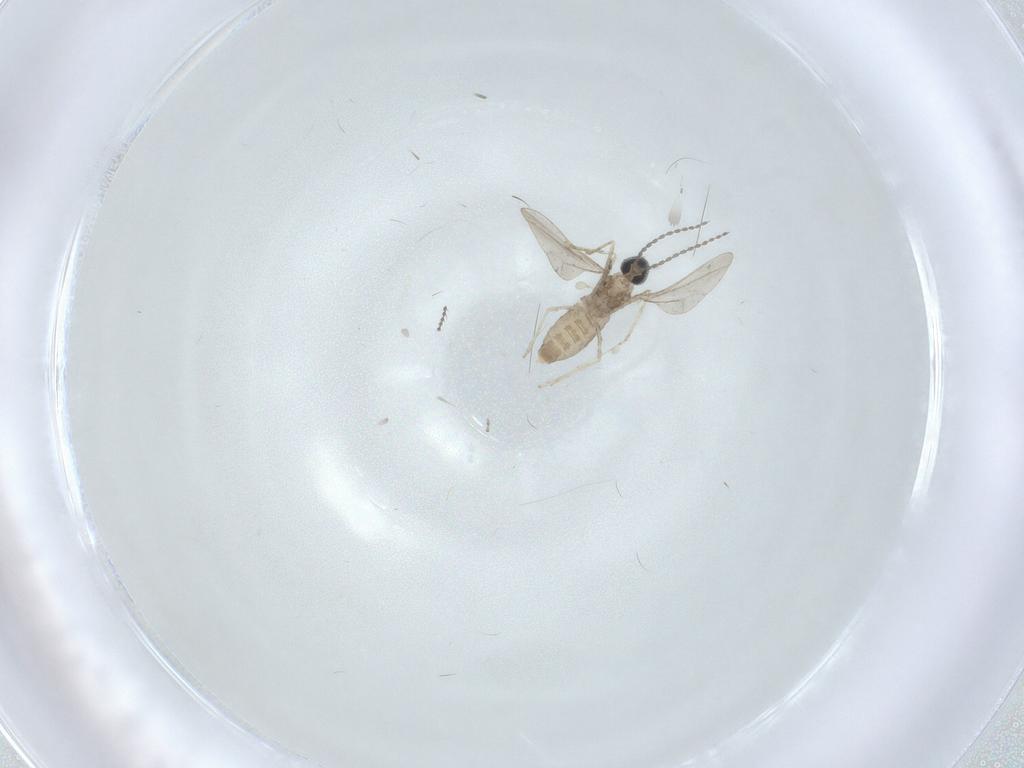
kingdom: Animalia
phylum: Arthropoda
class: Insecta
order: Diptera
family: Cecidomyiidae
